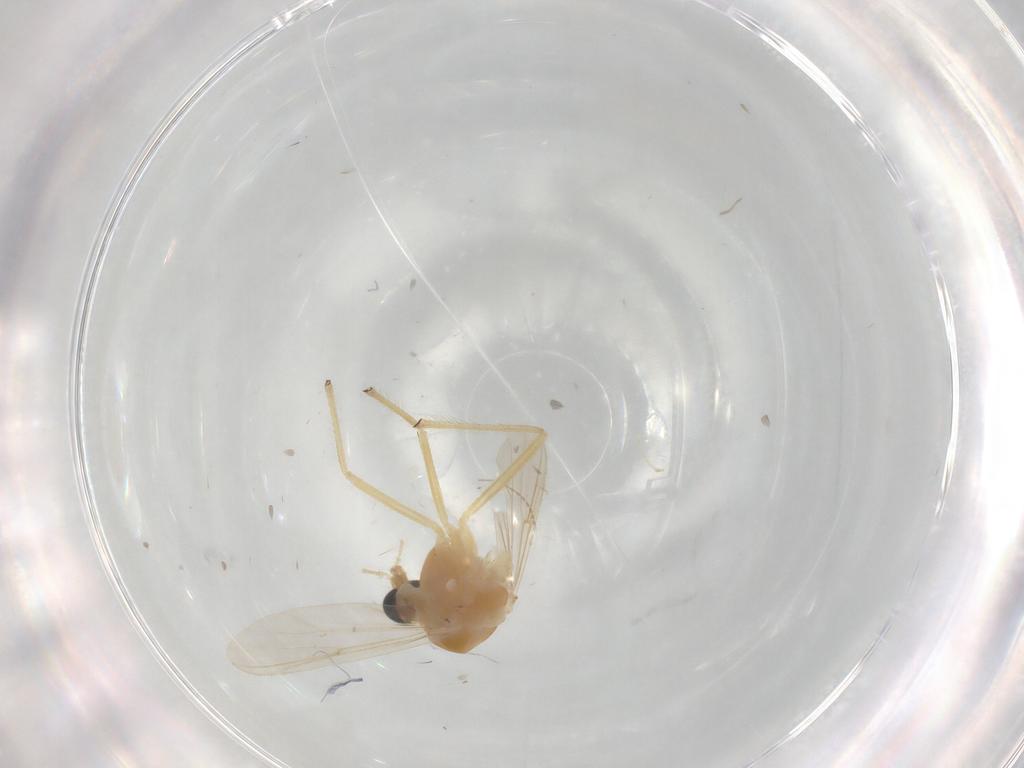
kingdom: Animalia
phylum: Arthropoda
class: Insecta
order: Diptera
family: Chironomidae
